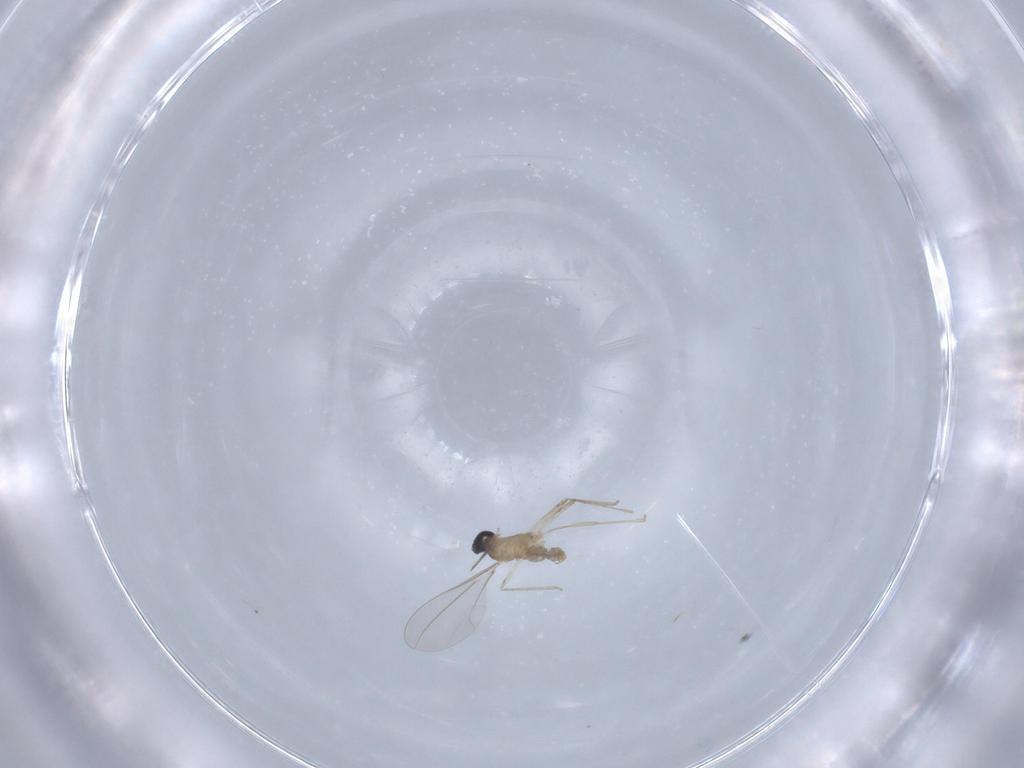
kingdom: Animalia
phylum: Arthropoda
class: Insecta
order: Diptera
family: Cecidomyiidae
